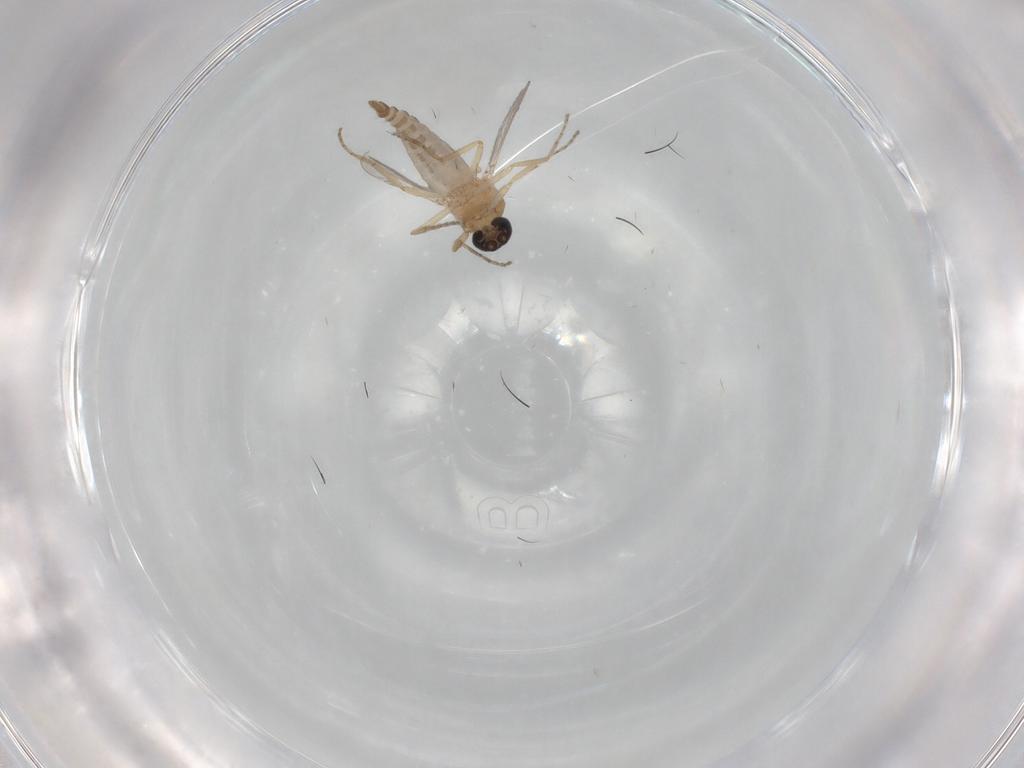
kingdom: Animalia
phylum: Arthropoda
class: Insecta
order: Diptera
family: Ceratopogonidae
